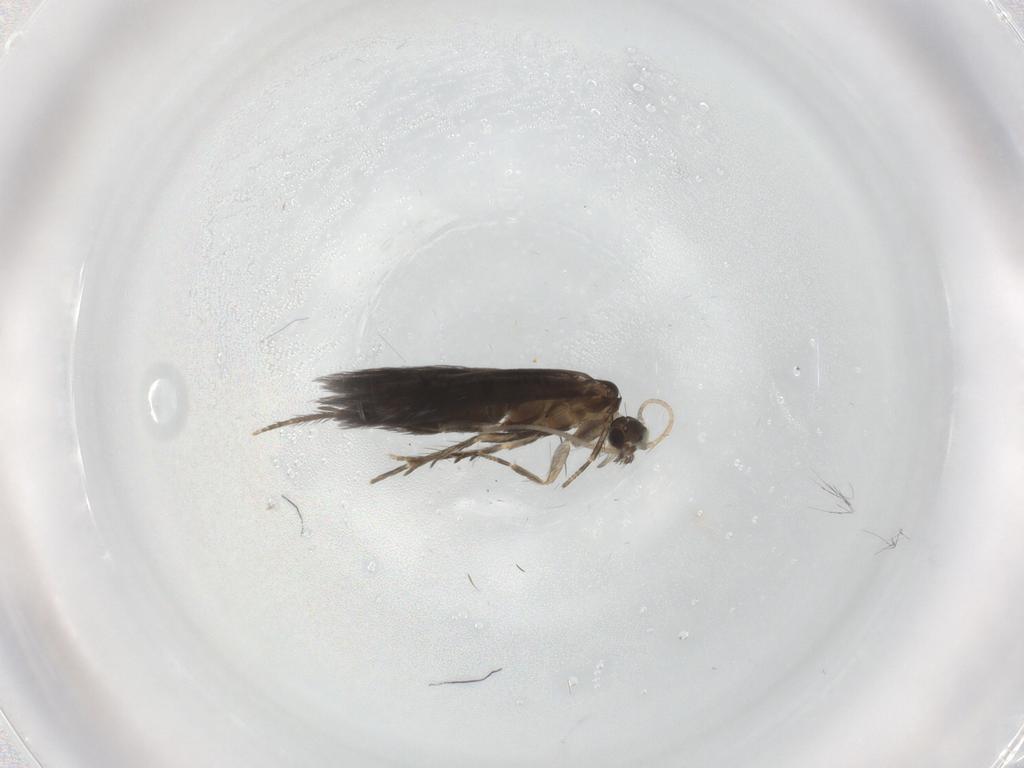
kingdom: Animalia
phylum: Arthropoda
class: Insecta
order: Trichoptera
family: Hydroptilidae
